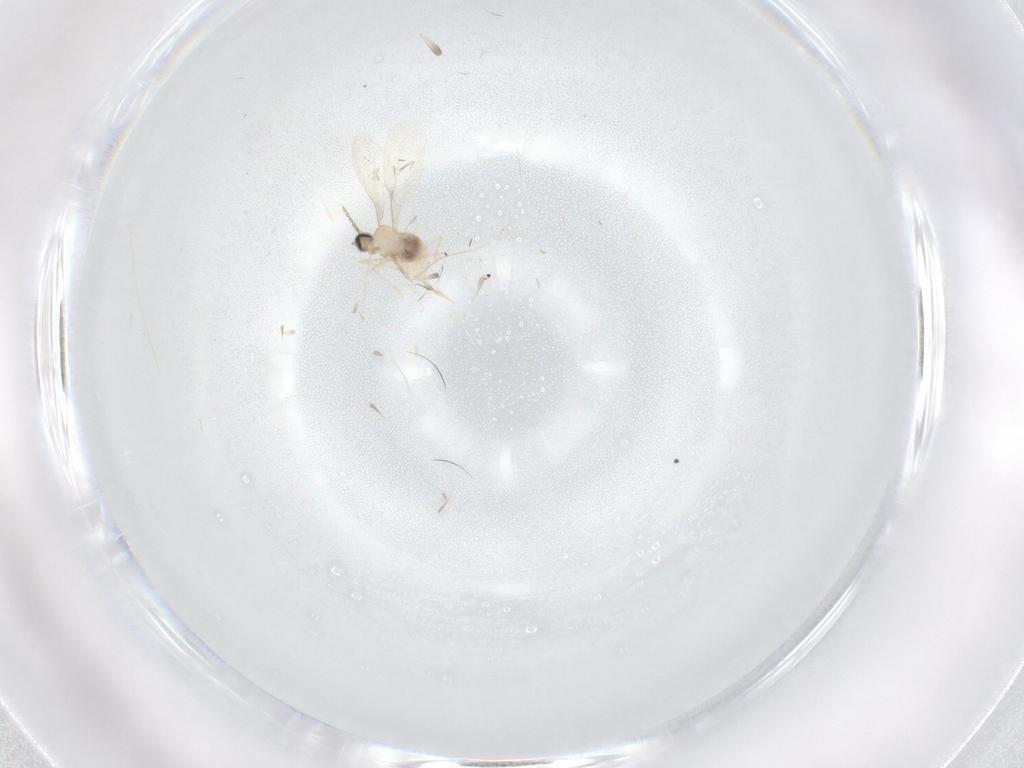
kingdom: Animalia
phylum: Arthropoda
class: Insecta
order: Diptera
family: Cecidomyiidae
